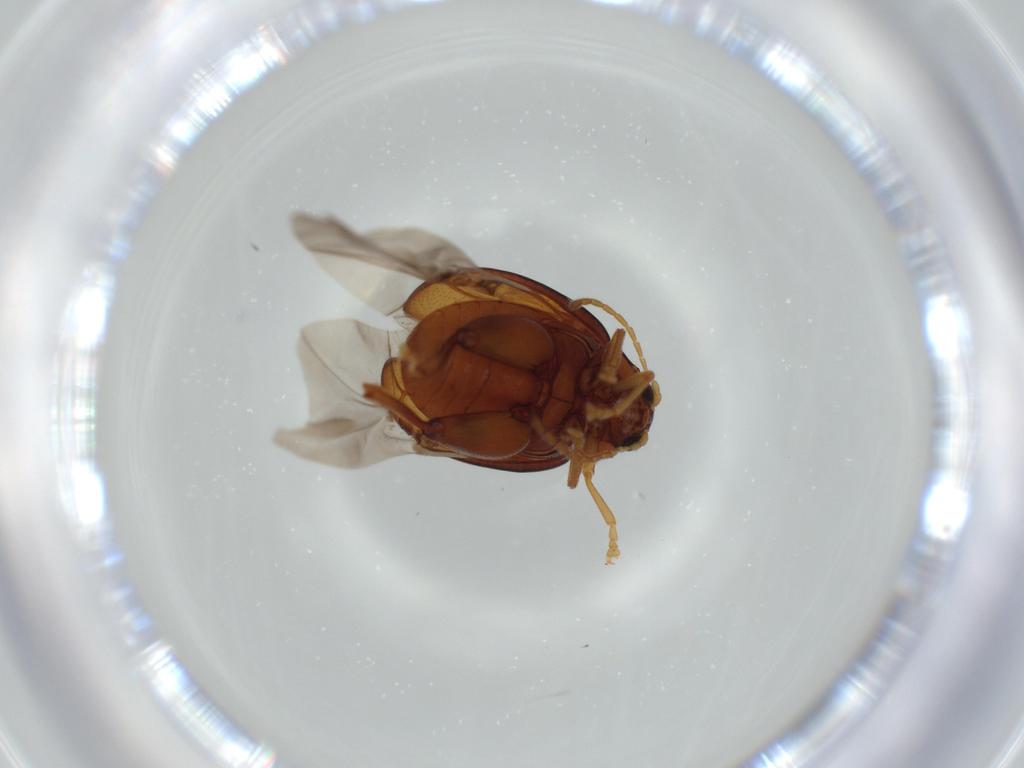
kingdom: Animalia
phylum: Arthropoda
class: Insecta
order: Coleoptera
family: Chrysomelidae
